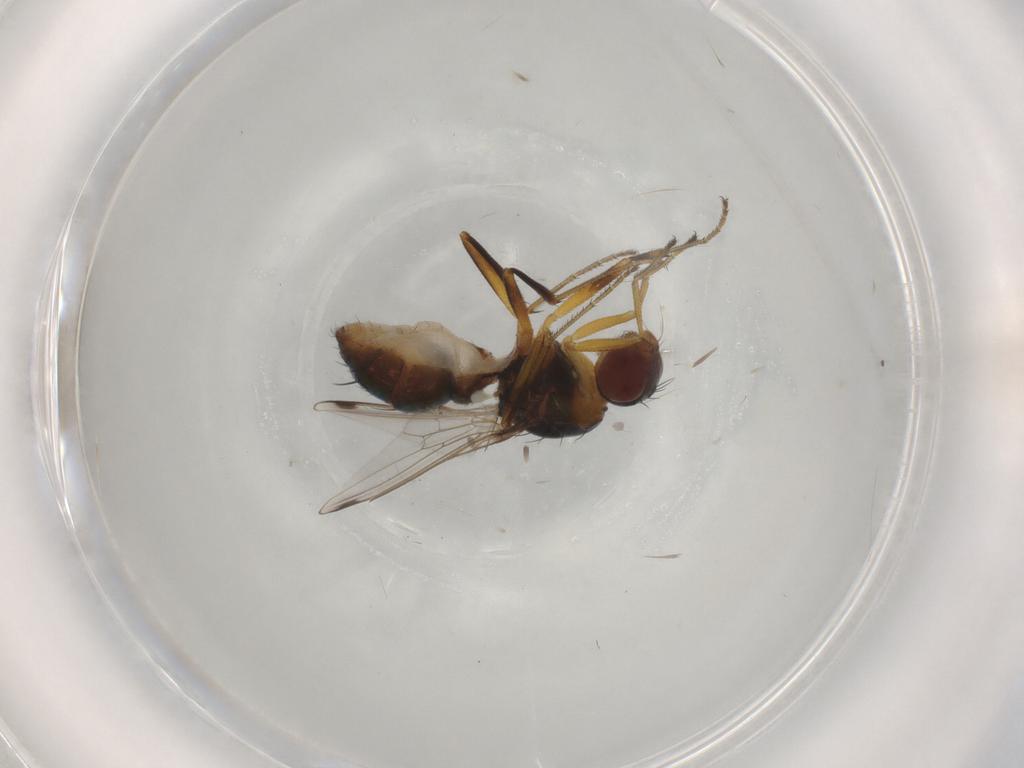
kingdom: Animalia
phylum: Arthropoda
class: Insecta
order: Diptera
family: Sepsidae
